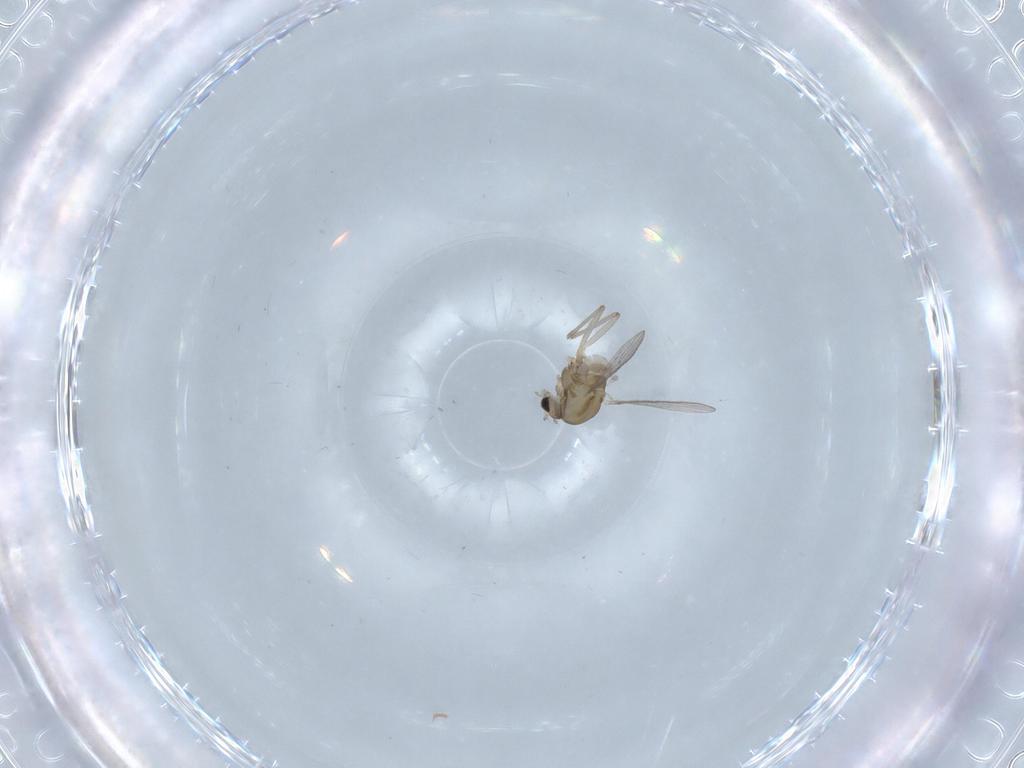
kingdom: Animalia
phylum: Arthropoda
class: Insecta
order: Diptera
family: Chironomidae
